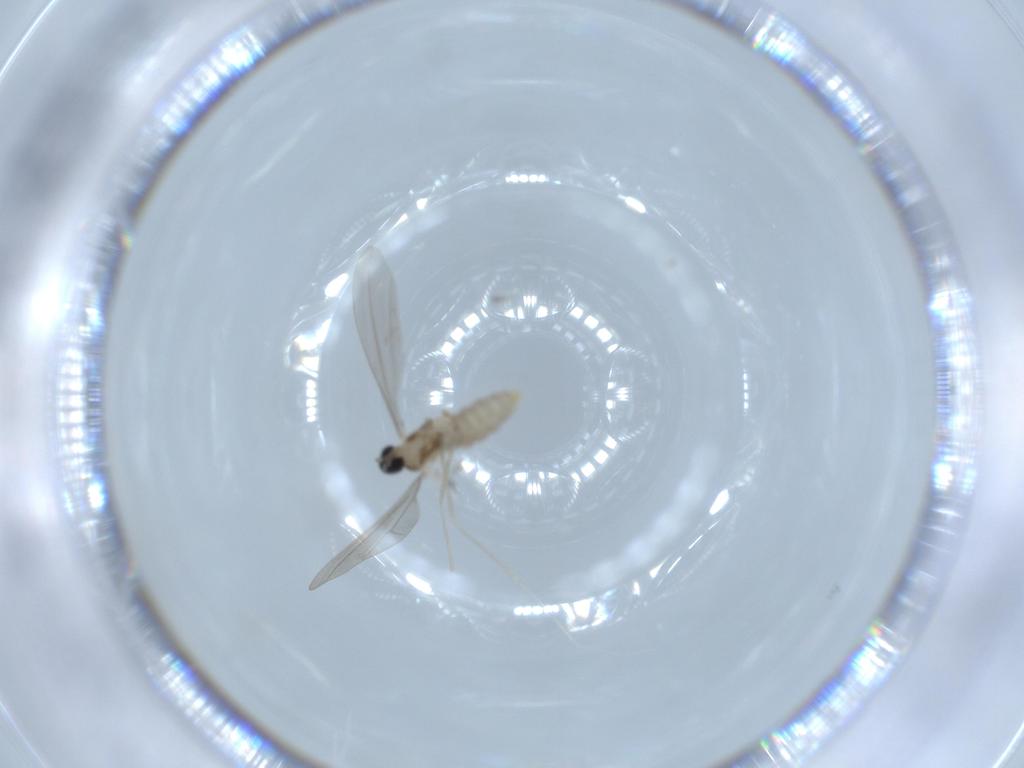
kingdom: Animalia
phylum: Arthropoda
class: Insecta
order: Diptera
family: Cecidomyiidae
